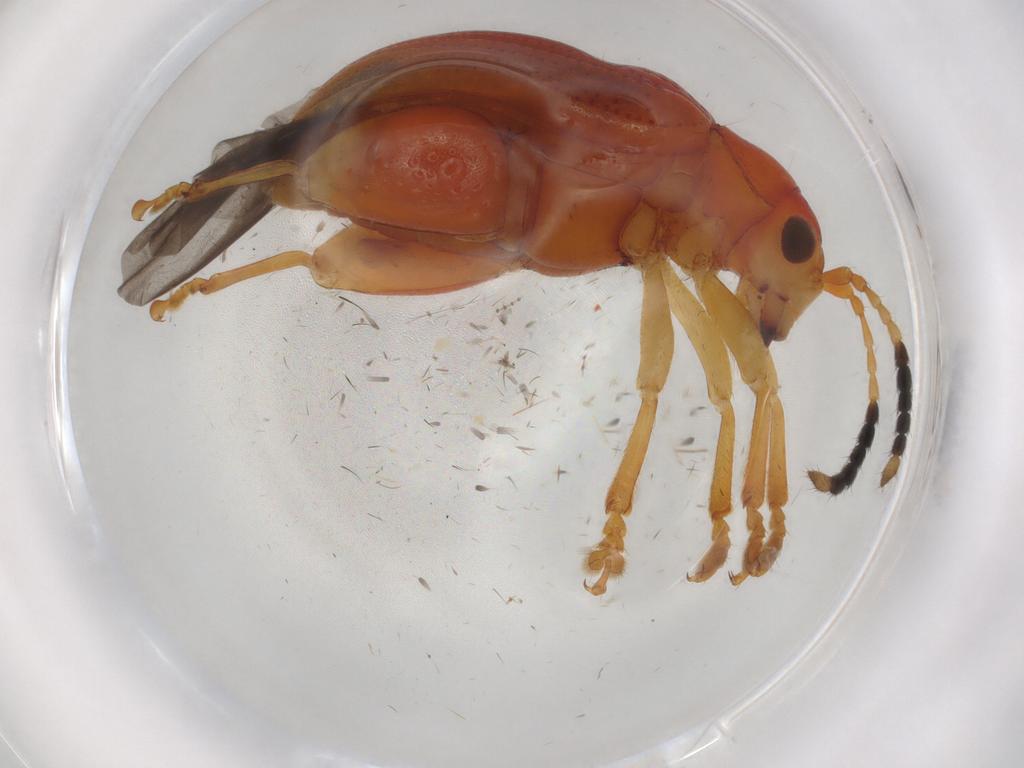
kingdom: Animalia
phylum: Arthropoda
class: Insecta
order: Coleoptera
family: Chrysomelidae
